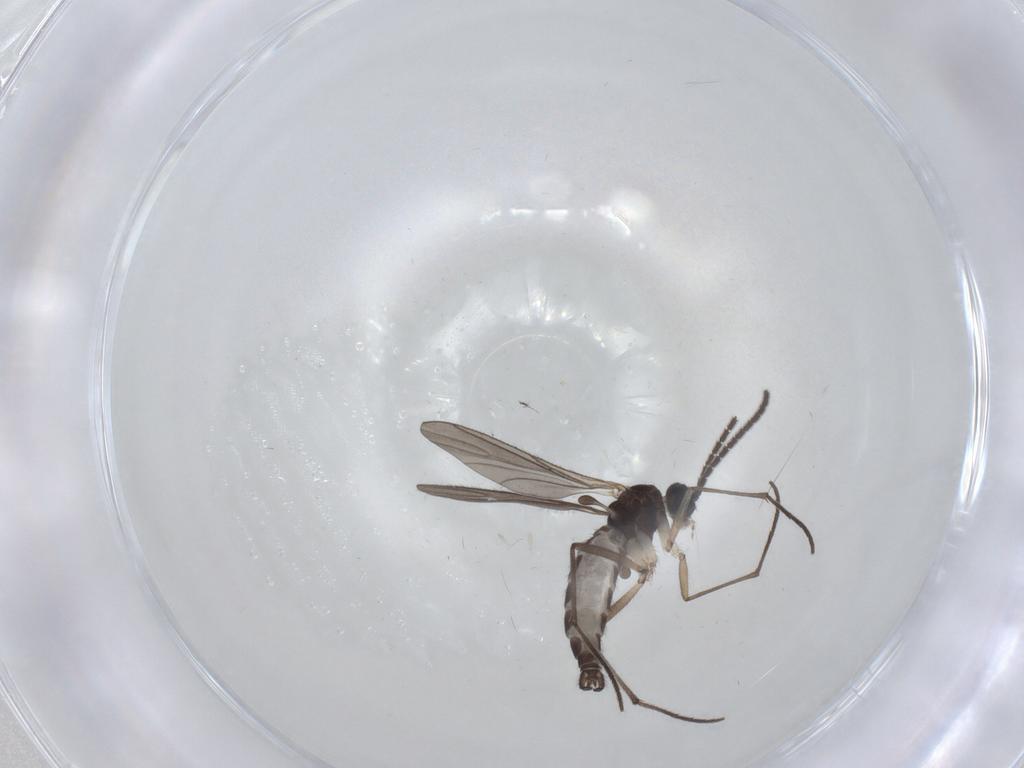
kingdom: Animalia
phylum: Arthropoda
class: Insecta
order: Diptera
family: Sciaridae
